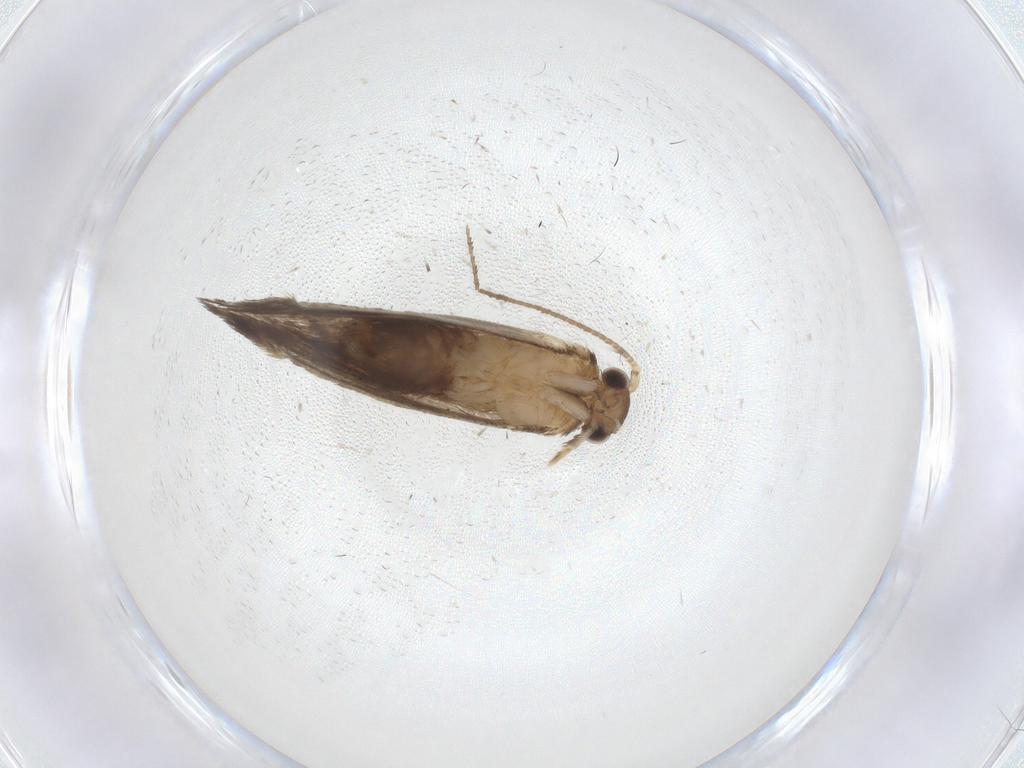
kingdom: Animalia
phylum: Arthropoda
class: Insecta
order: Lepidoptera
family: Dryadaulidae
